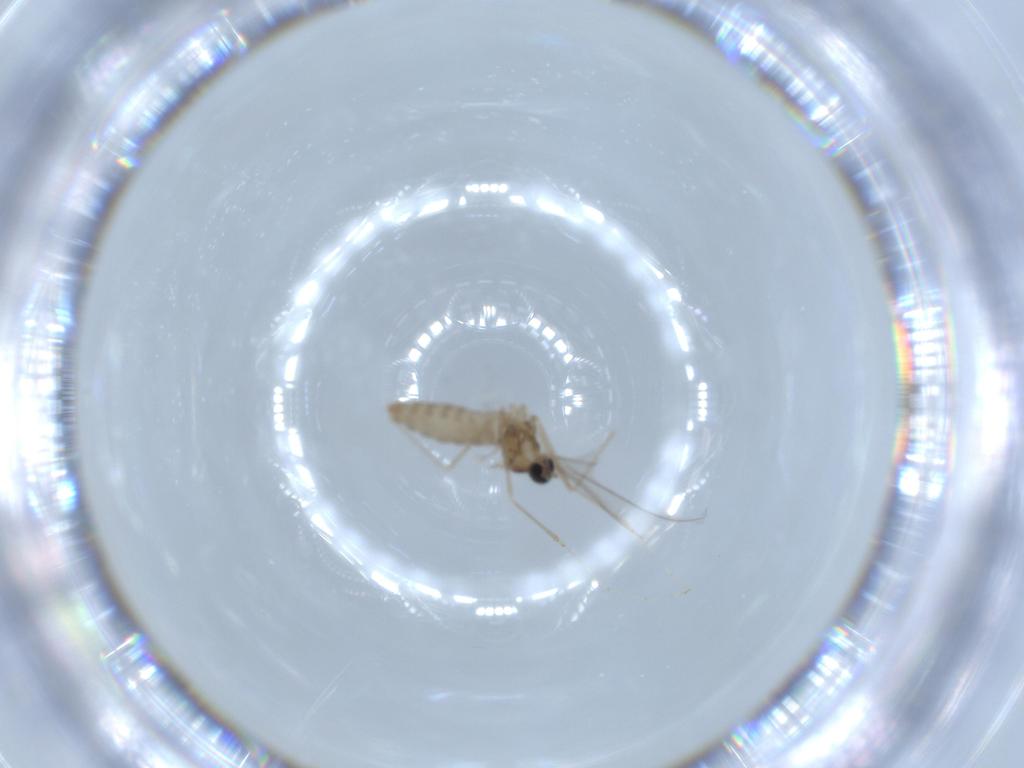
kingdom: Animalia
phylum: Arthropoda
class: Insecta
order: Diptera
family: Cecidomyiidae
